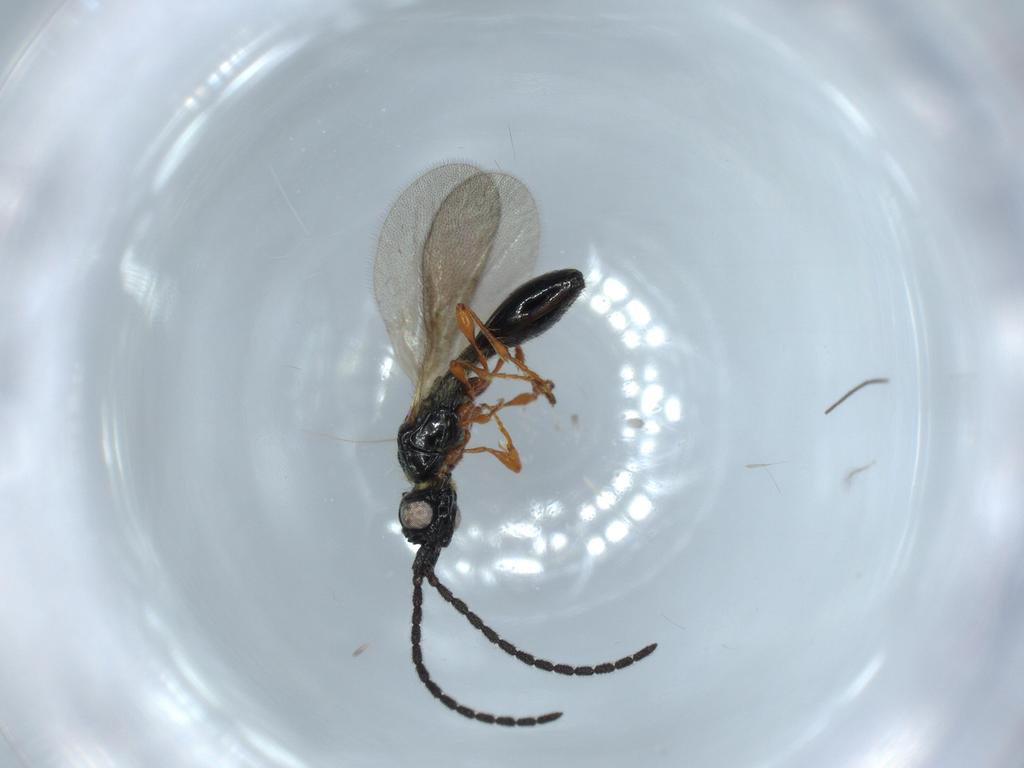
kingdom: Animalia
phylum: Arthropoda
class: Insecta
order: Hymenoptera
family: Diapriidae
